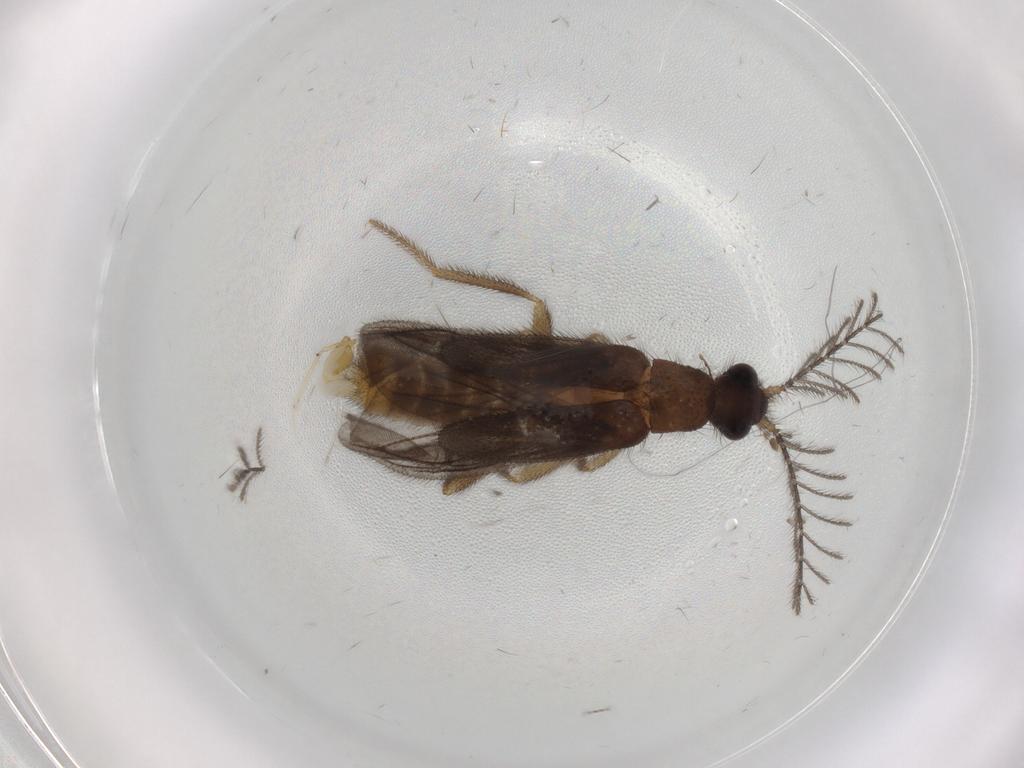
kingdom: Animalia
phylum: Arthropoda
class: Insecta
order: Coleoptera
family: Phengodidae
